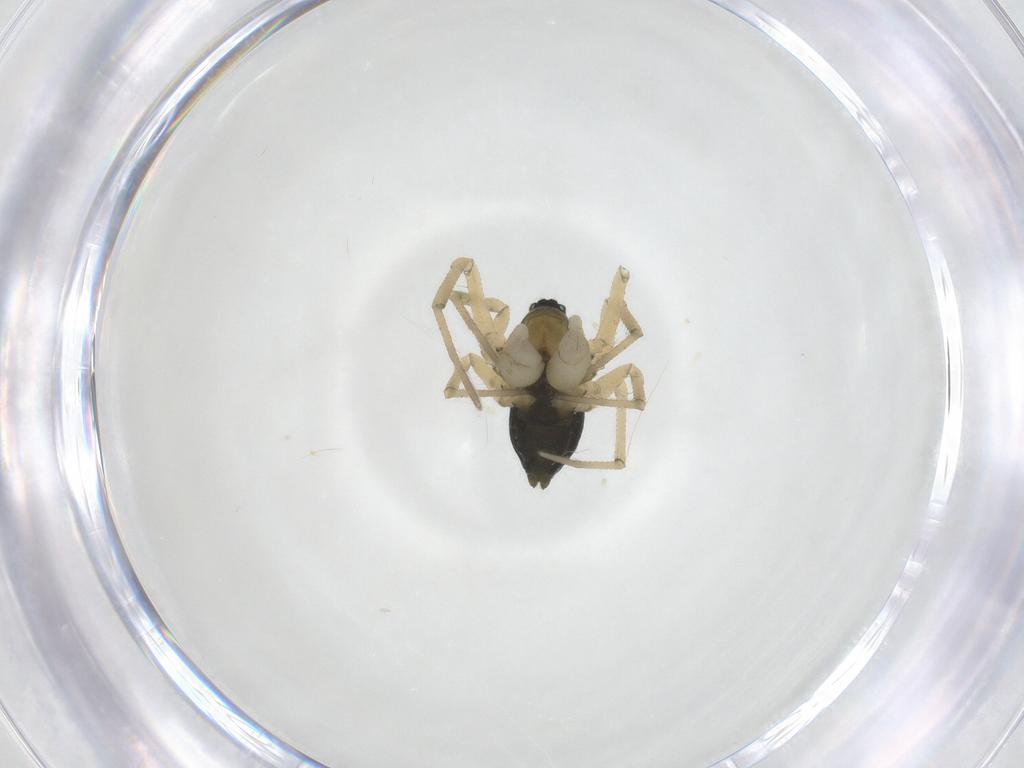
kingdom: Animalia
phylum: Arthropoda
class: Arachnida
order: Araneae
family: Linyphiidae
